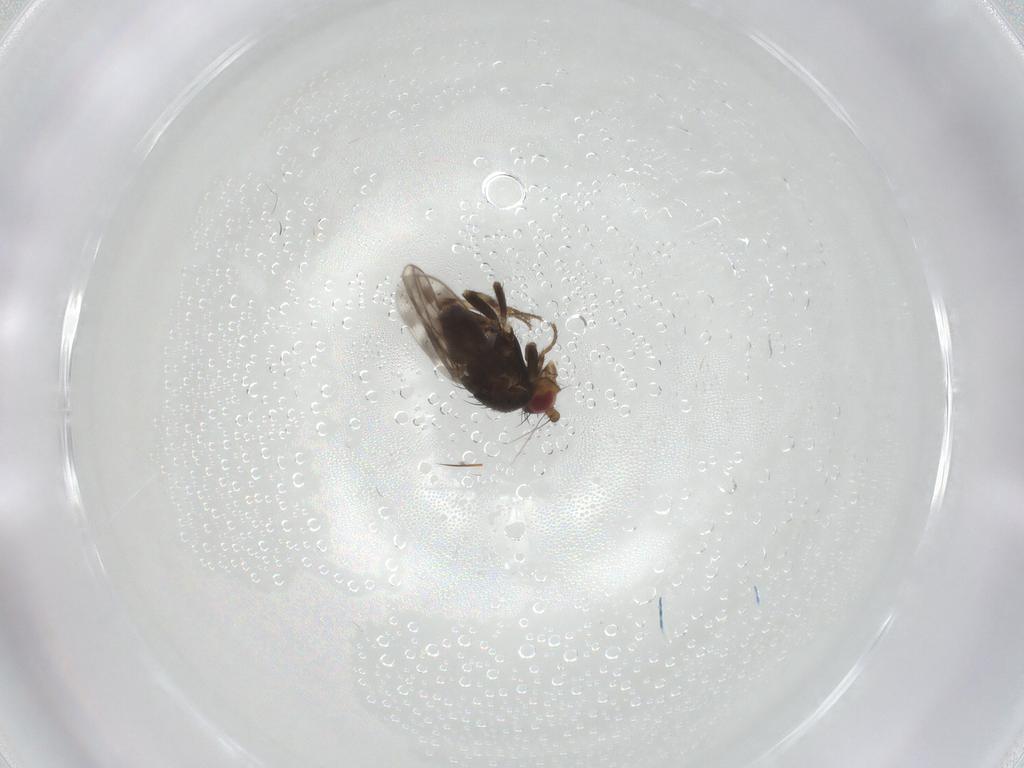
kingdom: Animalia
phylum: Arthropoda
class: Insecta
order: Diptera
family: Sphaeroceridae
